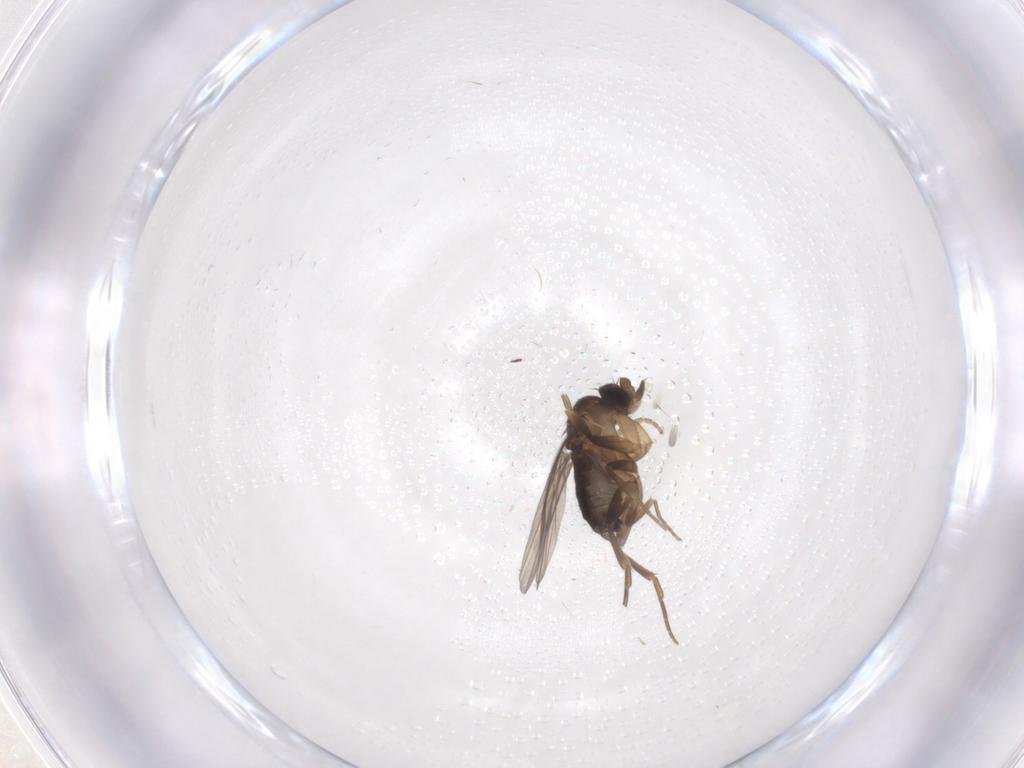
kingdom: Animalia
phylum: Arthropoda
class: Insecta
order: Diptera
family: Phoridae
